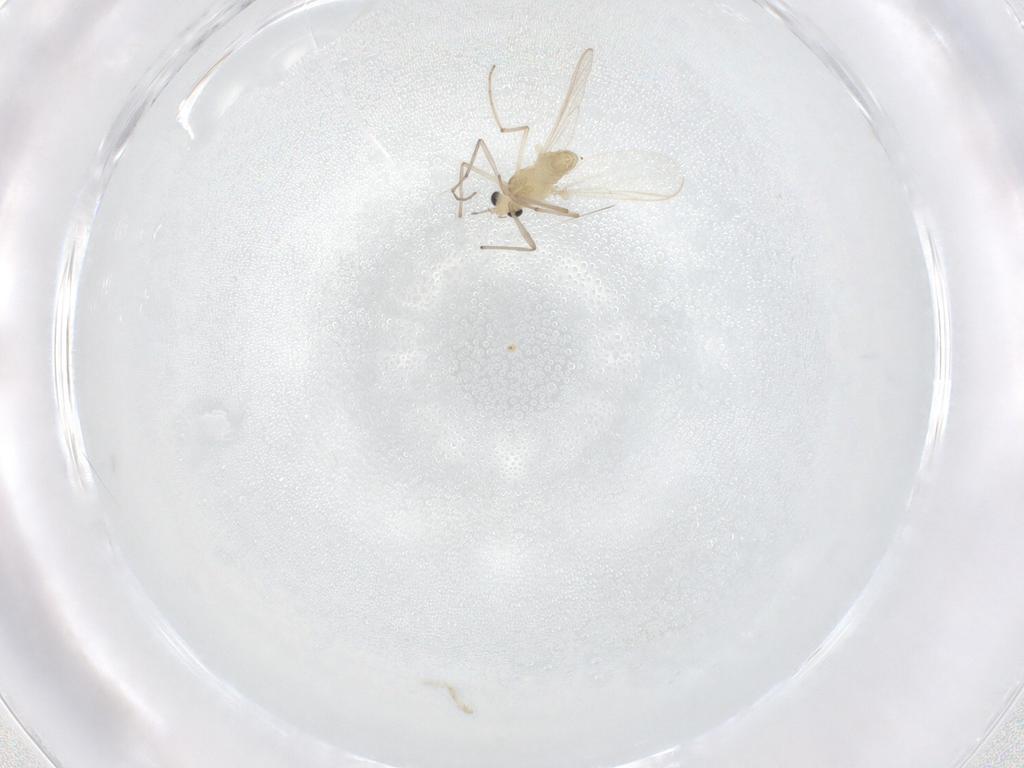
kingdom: Animalia
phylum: Arthropoda
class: Insecta
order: Diptera
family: Chironomidae
